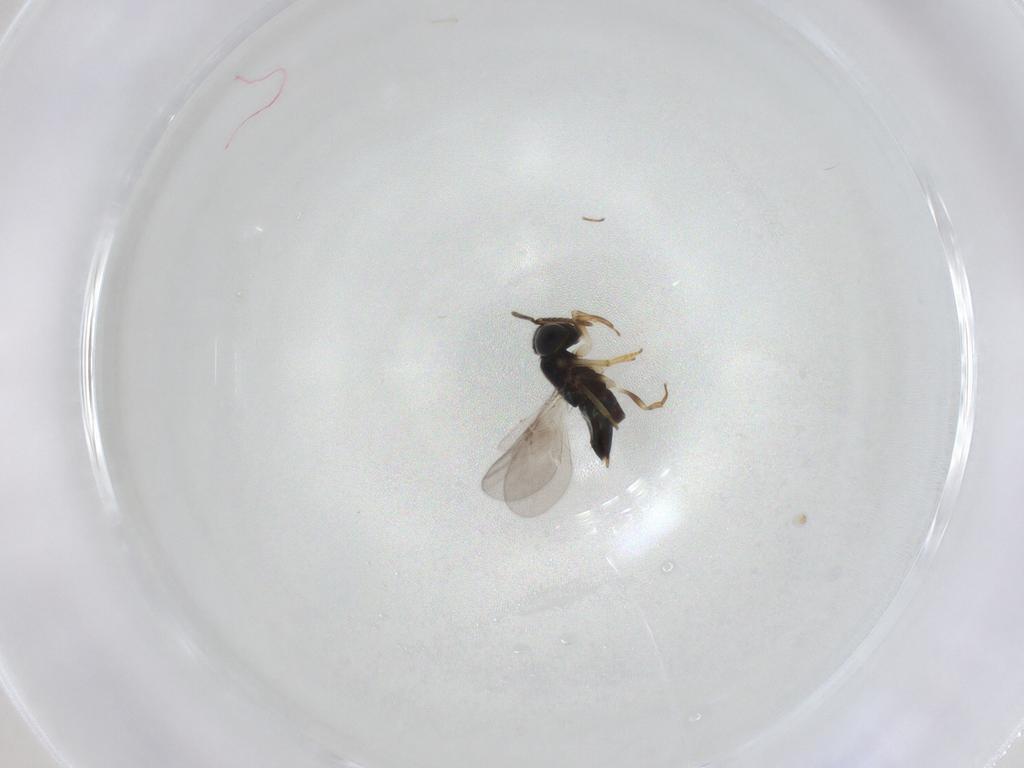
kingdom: Animalia
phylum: Arthropoda
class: Insecta
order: Hymenoptera
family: Encyrtidae
